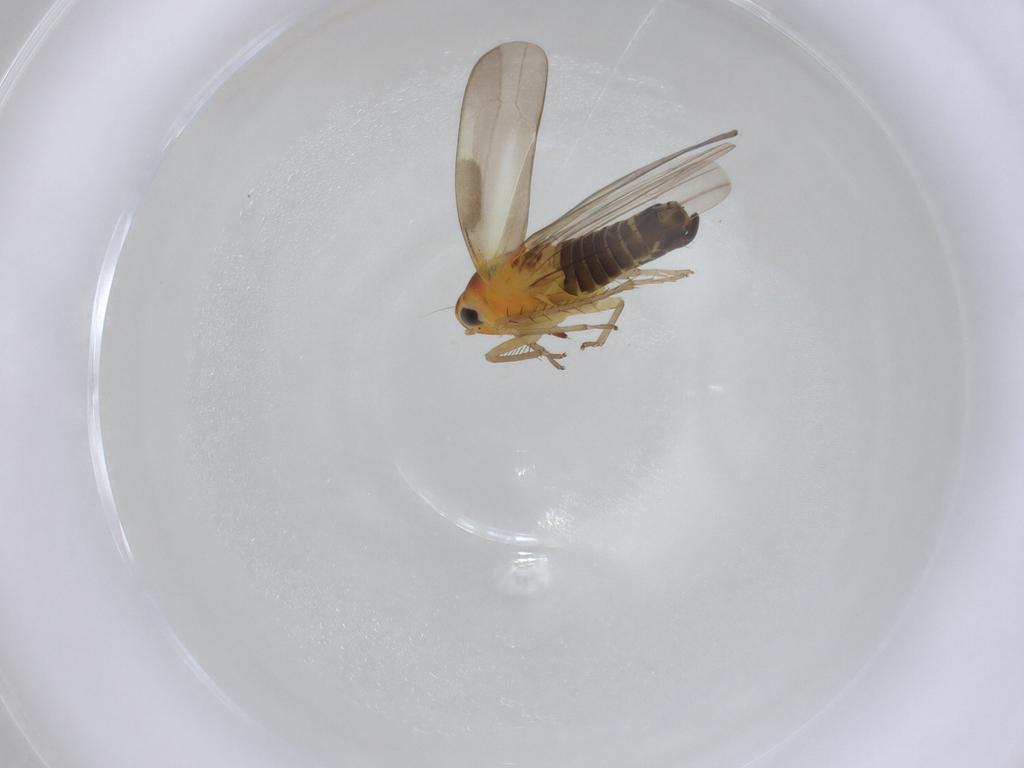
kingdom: Animalia
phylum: Arthropoda
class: Insecta
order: Hemiptera
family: Cicadellidae
